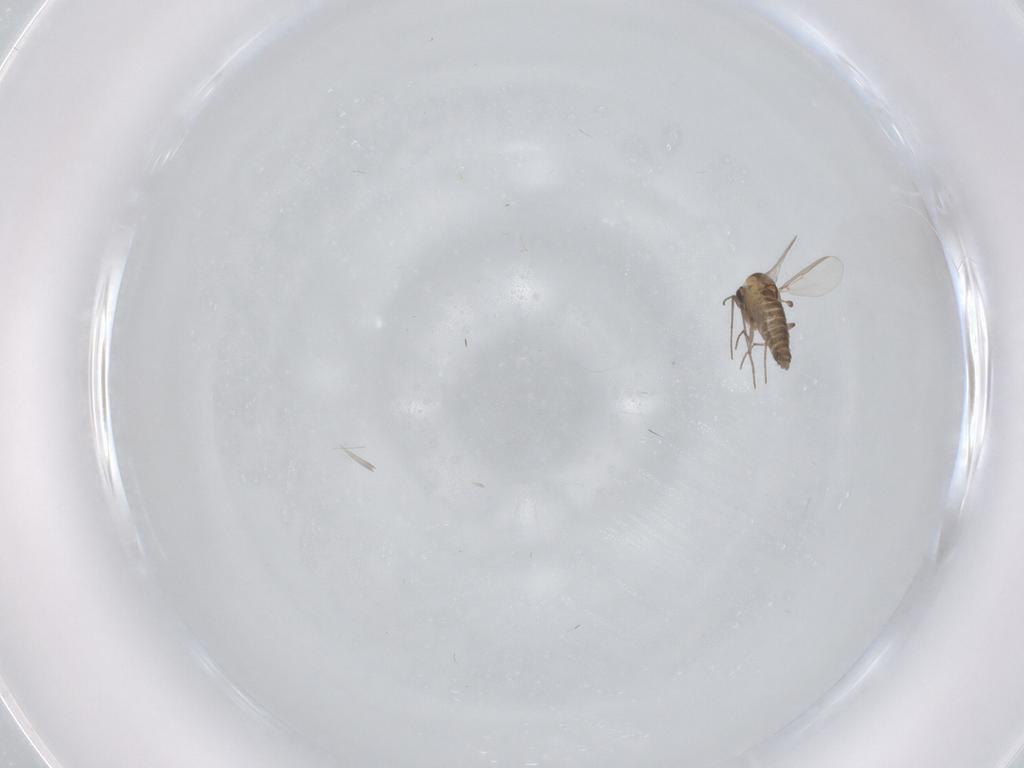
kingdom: Animalia
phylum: Arthropoda
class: Insecta
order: Diptera
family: Chironomidae
